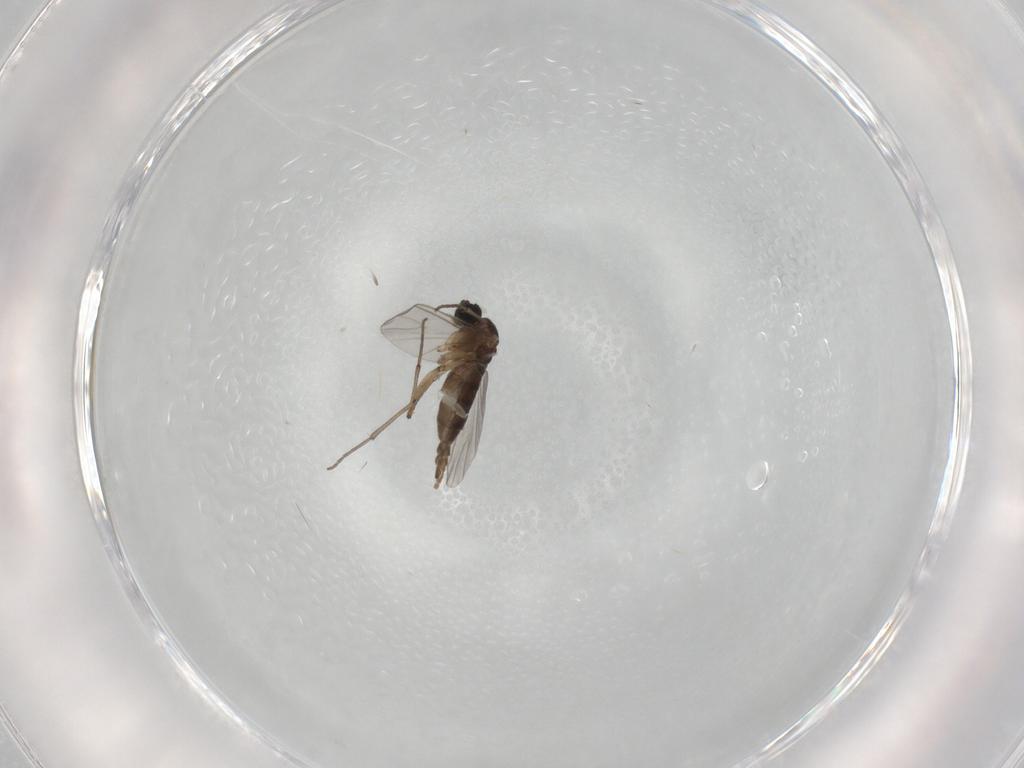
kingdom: Animalia
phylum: Arthropoda
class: Insecta
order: Diptera
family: Sciaridae
